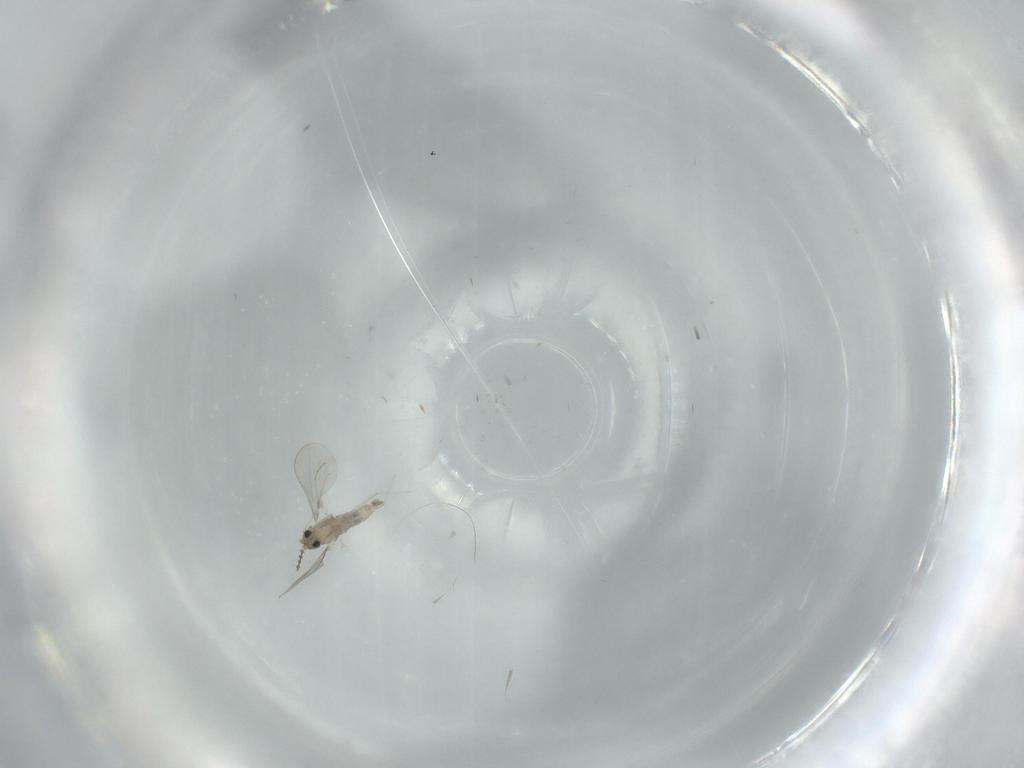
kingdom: Animalia
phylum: Arthropoda
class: Insecta
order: Diptera
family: Cecidomyiidae
